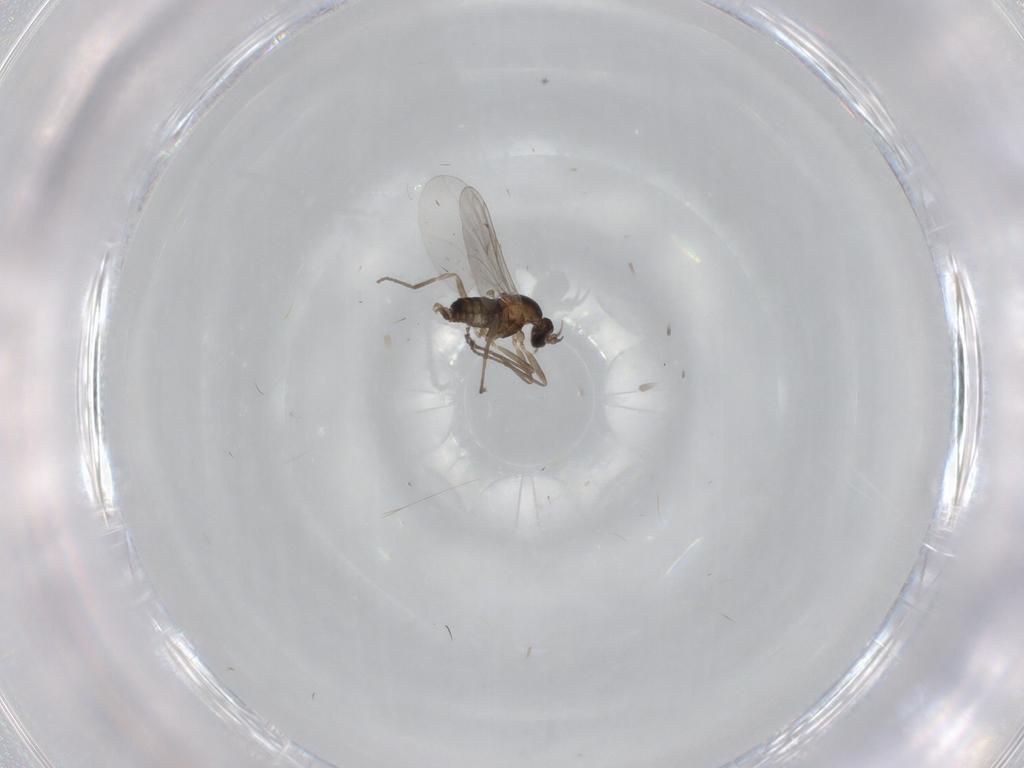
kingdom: Animalia
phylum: Arthropoda
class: Insecta
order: Diptera
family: Cecidomyiidae
